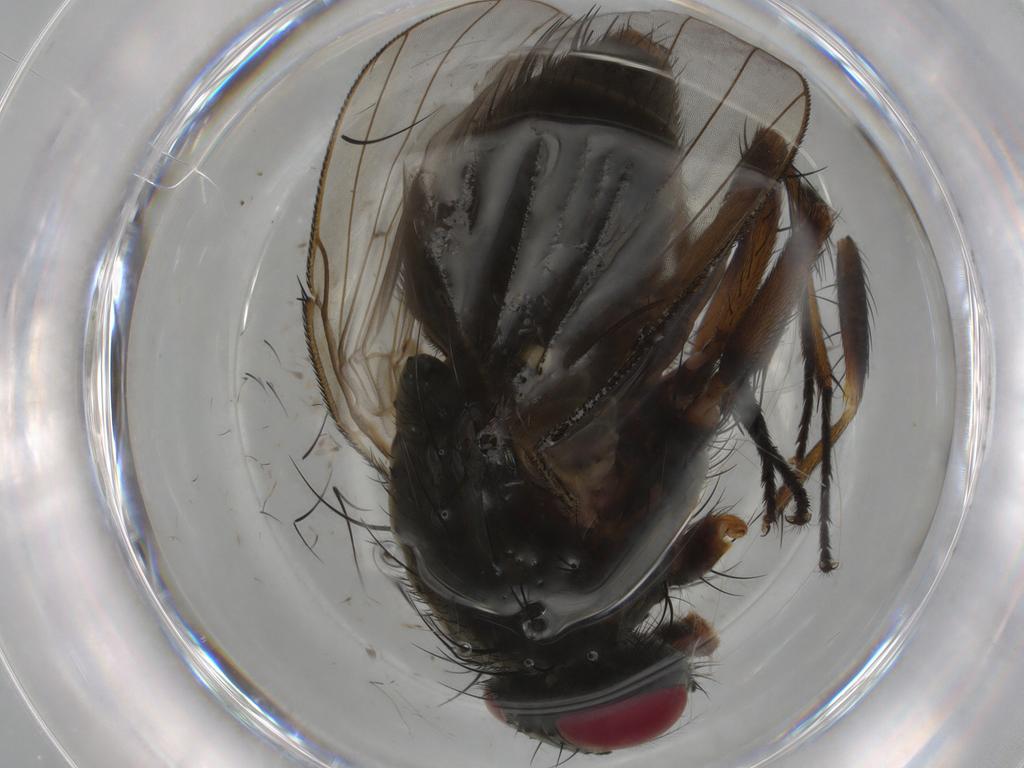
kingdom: Animalia
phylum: Arthropoda
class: Insecta
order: Diptera
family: Muscidae
